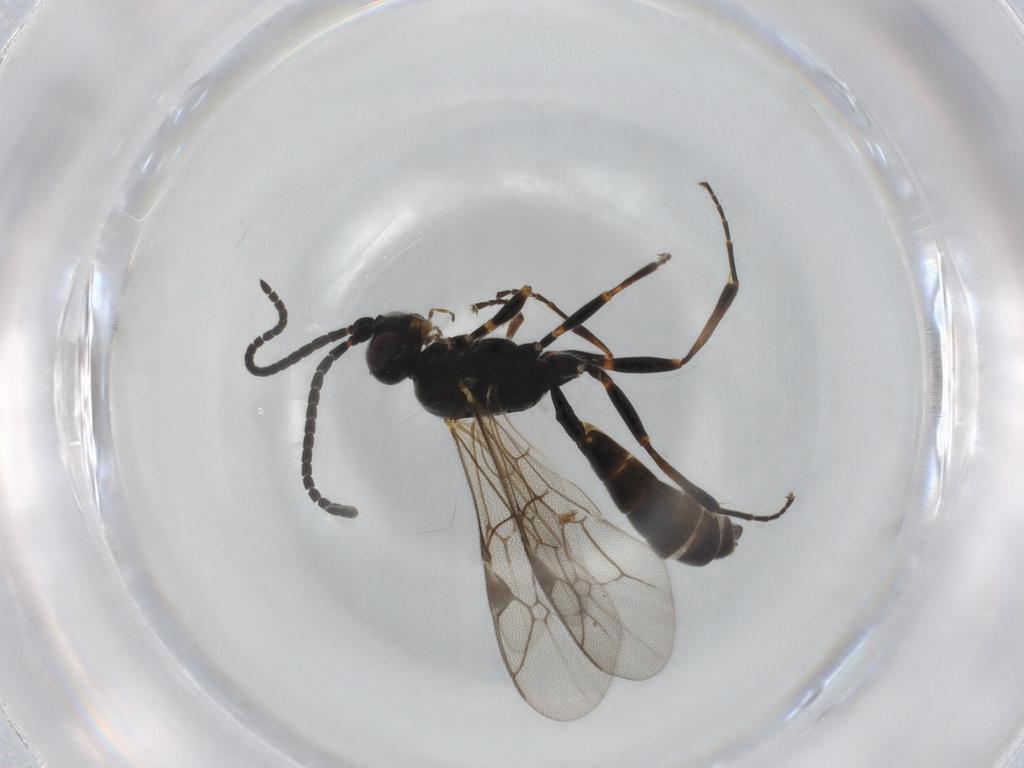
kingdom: Animalia
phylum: Arthropoda
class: Insecta
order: Hymenoptera
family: Ichneumonidae
